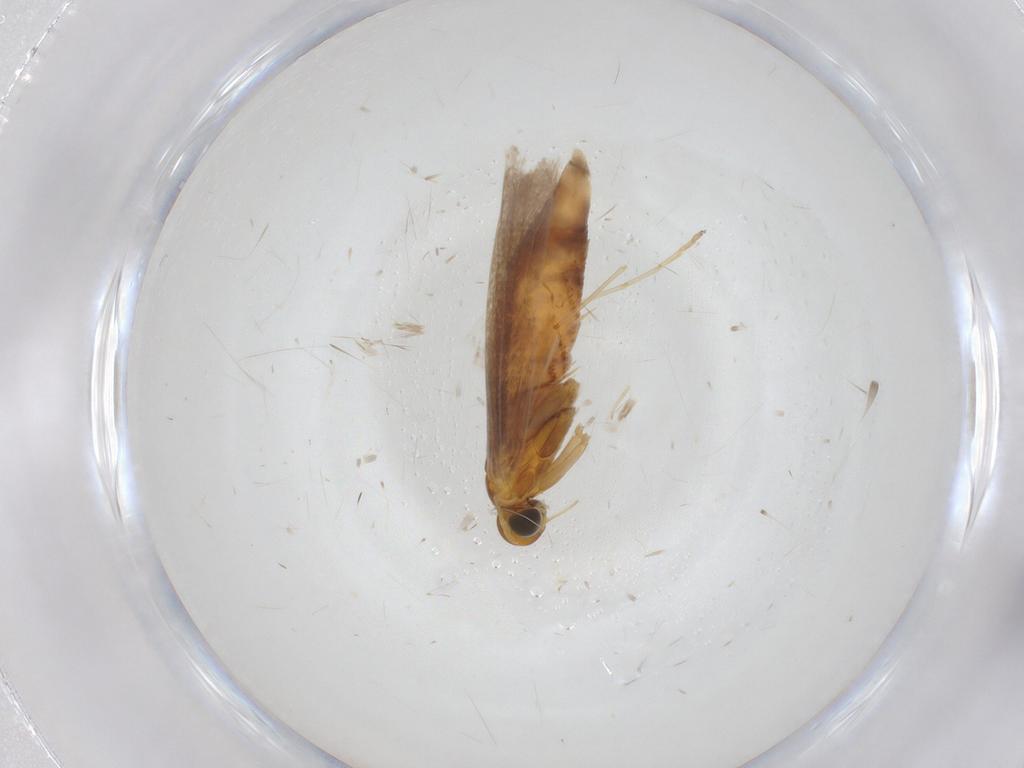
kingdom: Animalia
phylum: Arthropoda
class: Insecta
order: Lepidoptera
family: Gracillariidae
